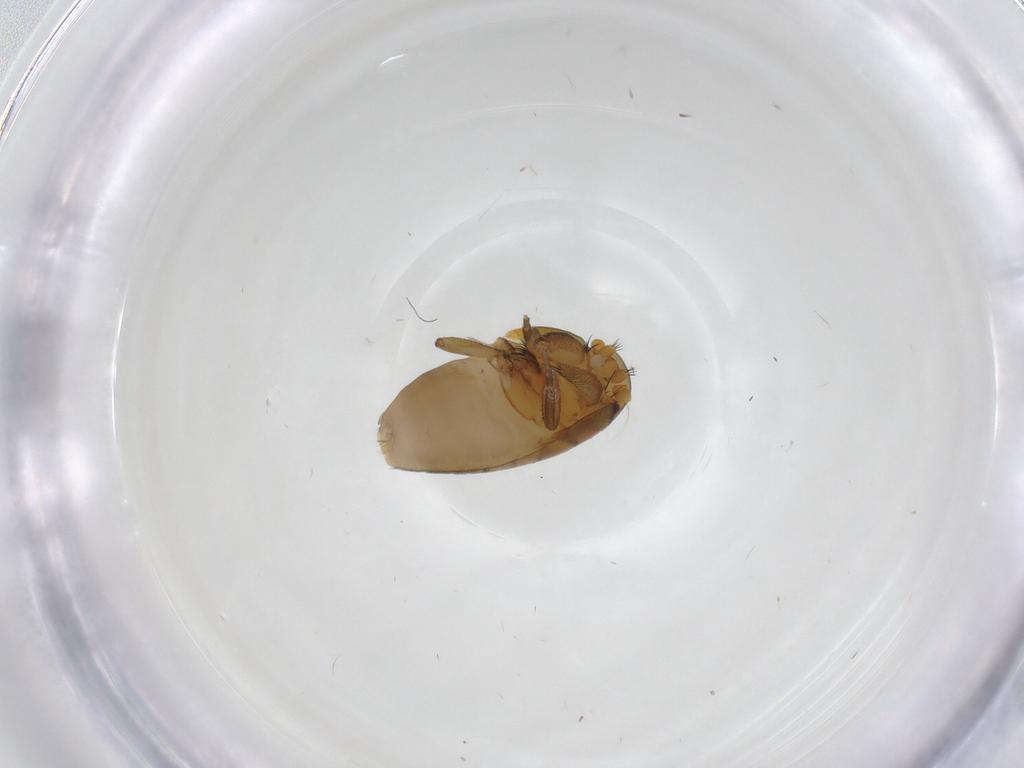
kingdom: Animalia
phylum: Arthropoda
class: Insecta
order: Diptera
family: Phoridae
